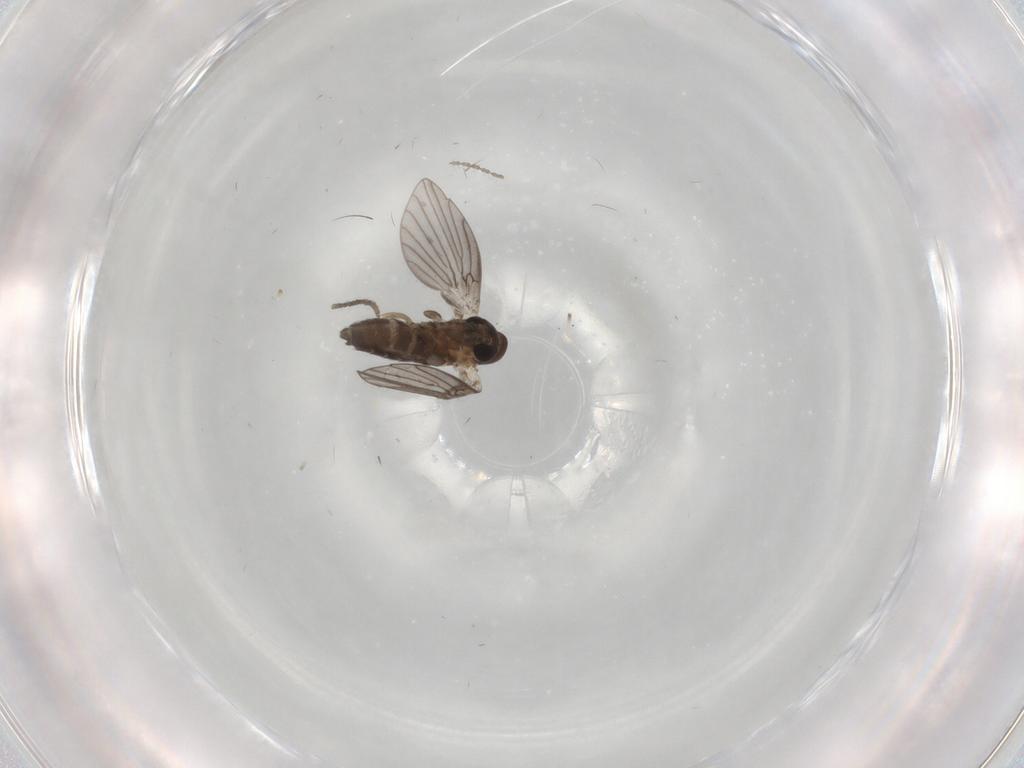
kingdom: Animalia
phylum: Arthropoda
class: Insecta
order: Diptera
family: Cecidomyiidae
